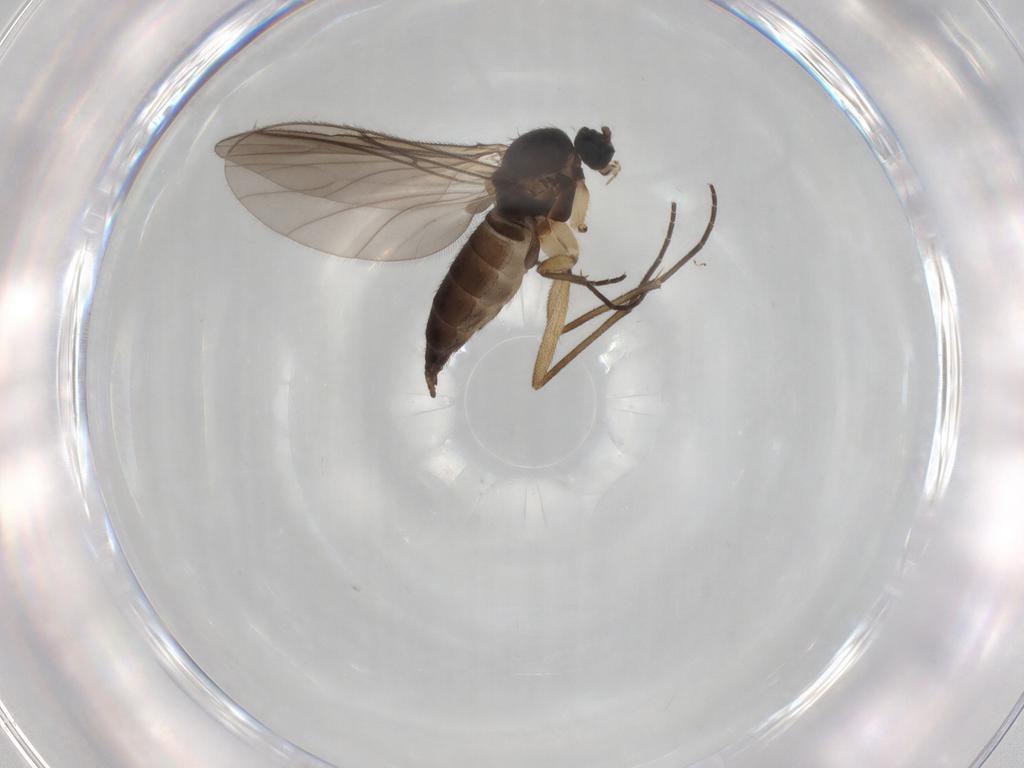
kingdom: Animalia
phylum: Arthropoda
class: Insecta
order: Diptera
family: Sciaridae
